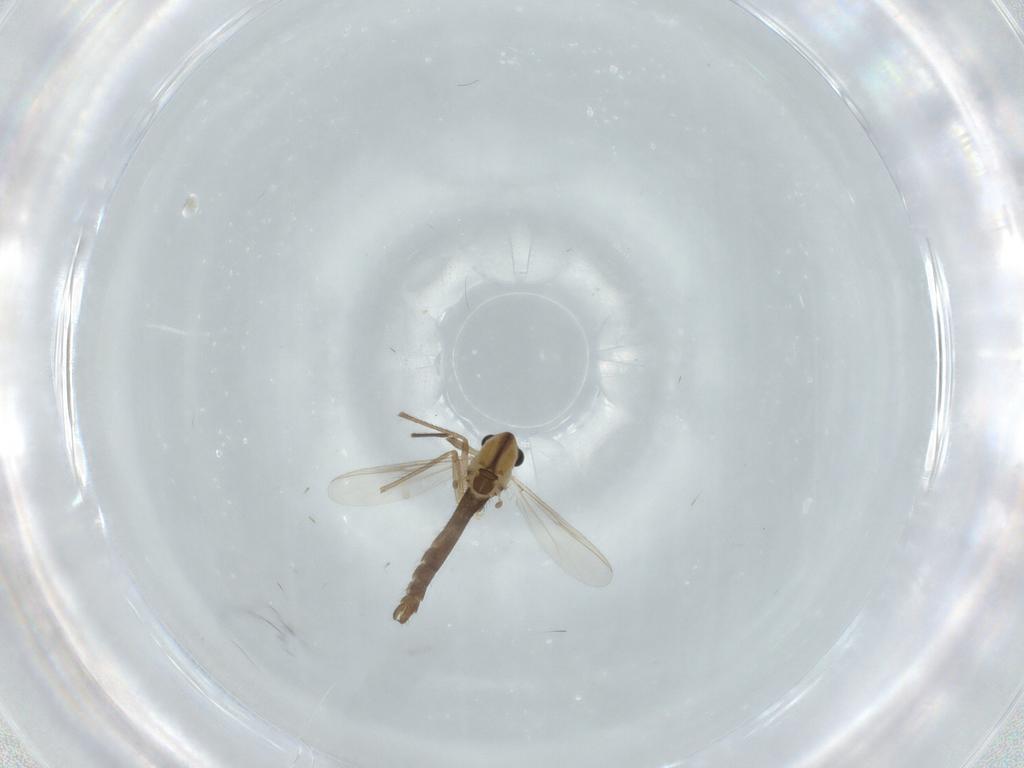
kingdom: Animalia
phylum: Arthropoda
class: Insecta
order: Diptera
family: Chironomidae
